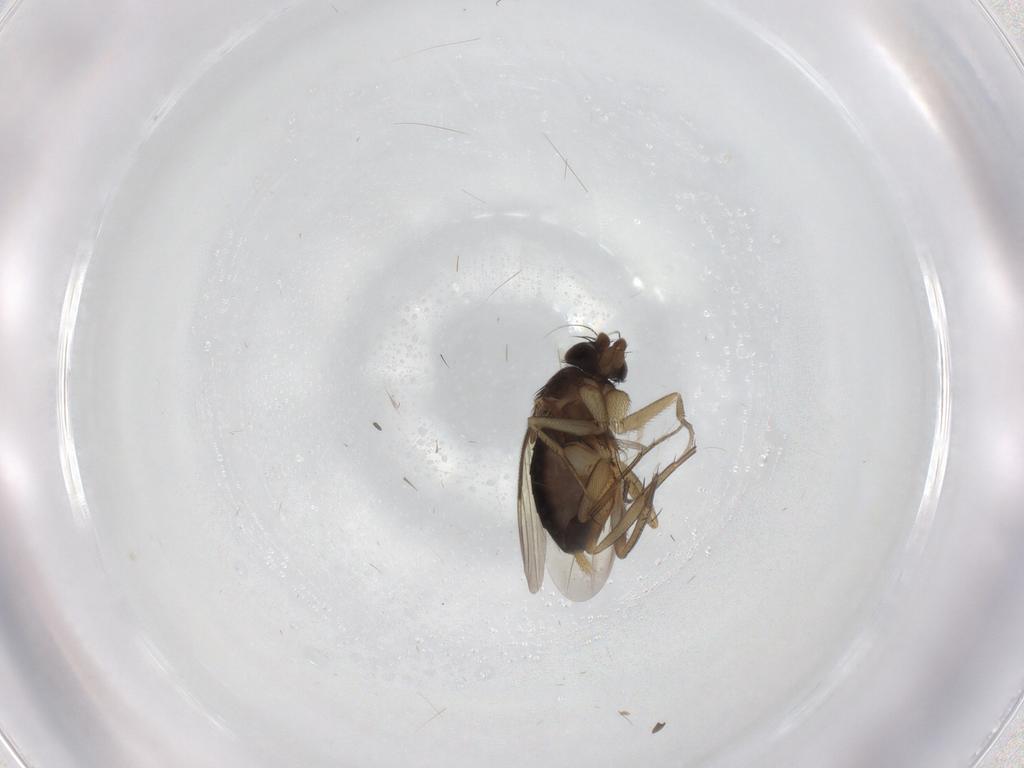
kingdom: Animalia
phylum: Arthropoda
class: Insecta
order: Diptera
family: Phoridae
